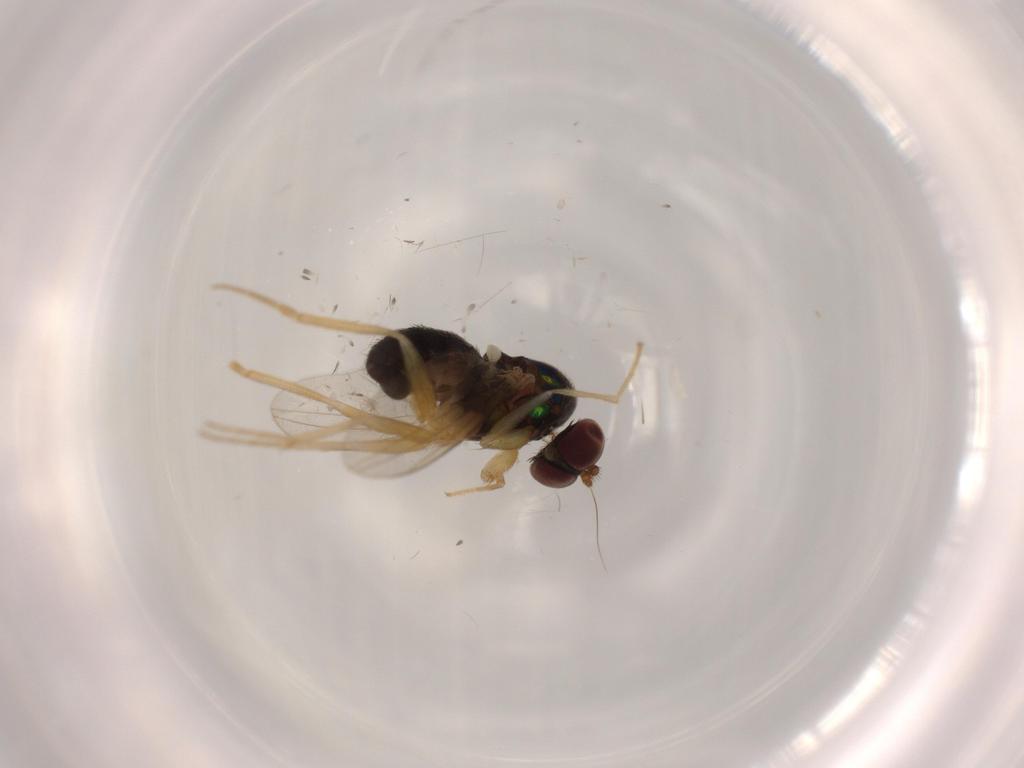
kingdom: Animalia
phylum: Arthropoda
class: Insecta
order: Diptera
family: Dolichopodidae
